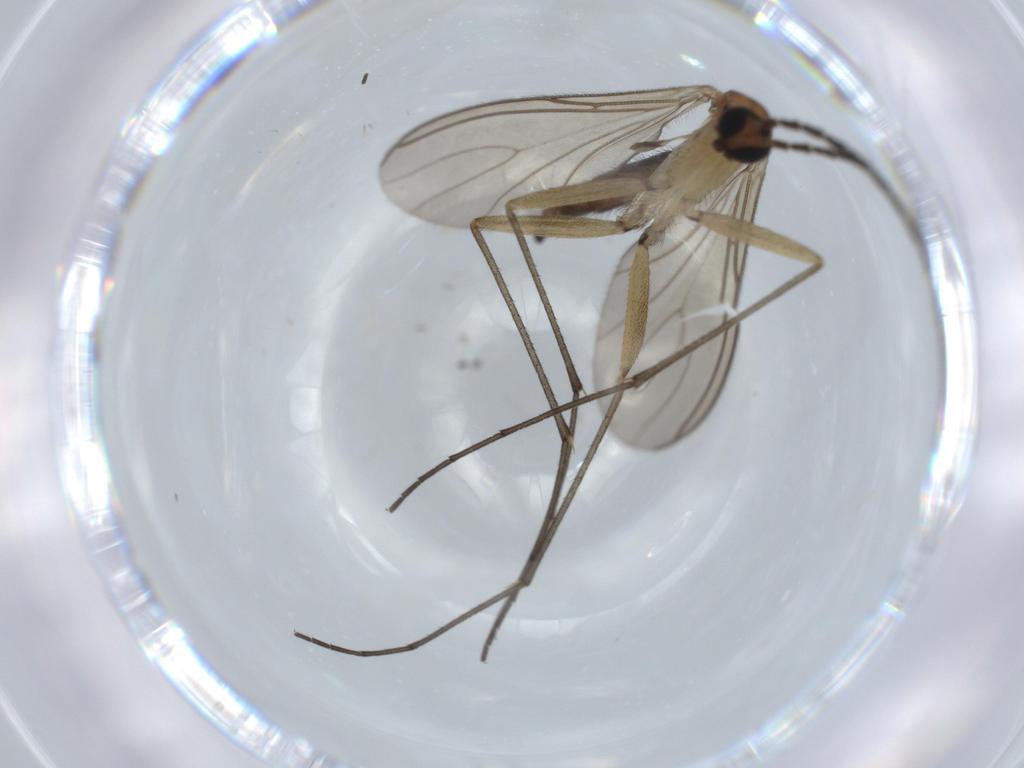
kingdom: Animalia
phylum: Arthropoda
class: Insecta
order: Diptera
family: Sciaridae
